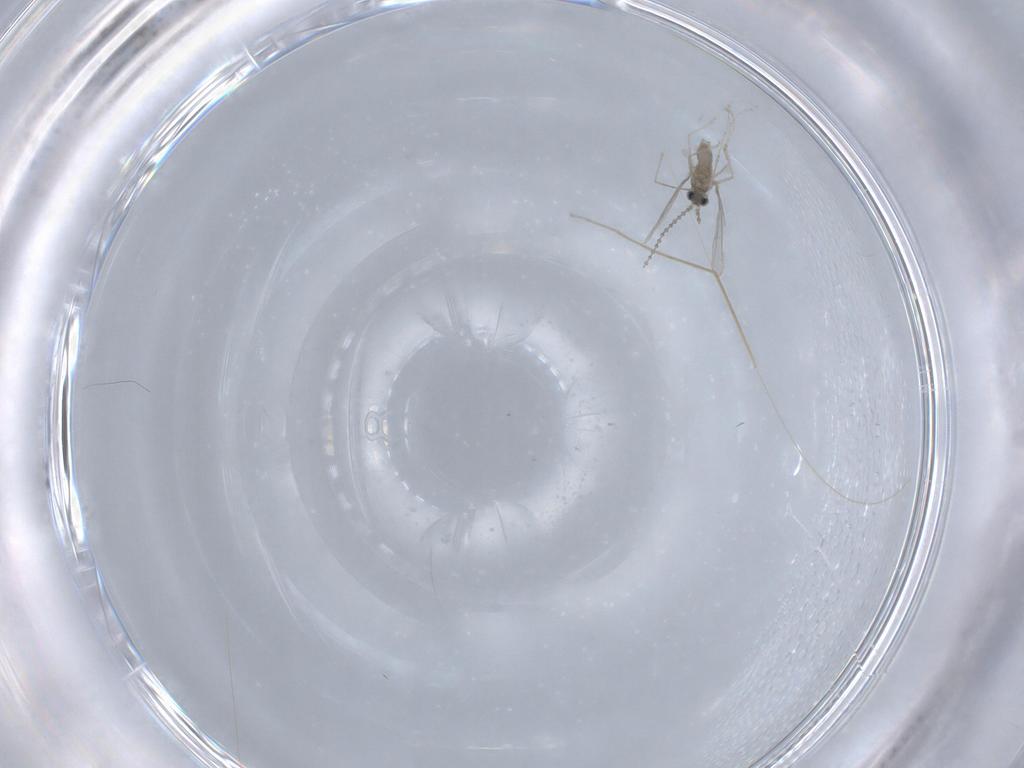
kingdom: Animalia
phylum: Arthropoda
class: Insecta
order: Diptera
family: Cecidomyiidae
